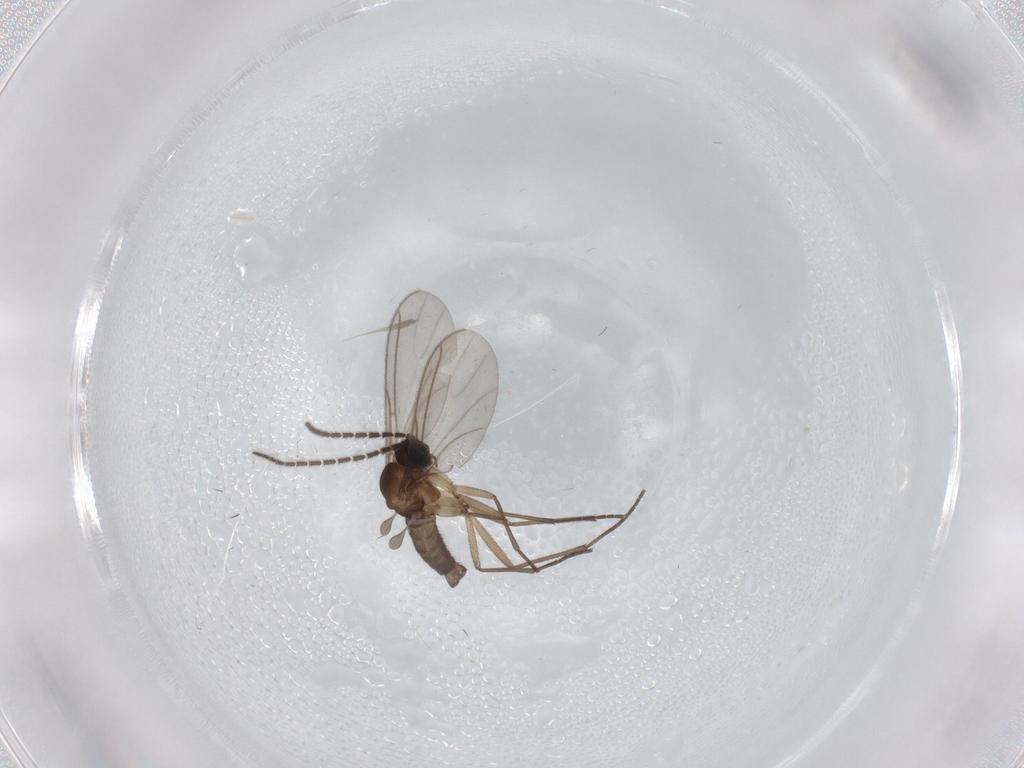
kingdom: Animalia
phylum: Arthropoda
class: Insecta
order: Diptera
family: Sciaridae
